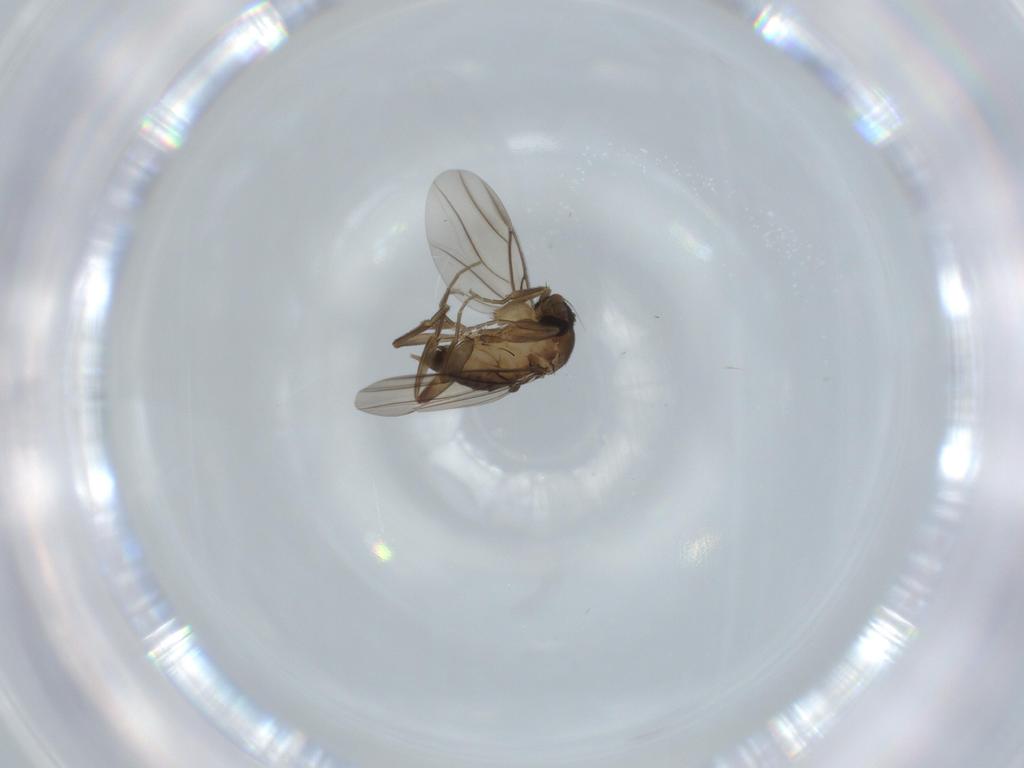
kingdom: Animalia
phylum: Arthropoda
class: Insecta
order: Diptera
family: Phoridae
